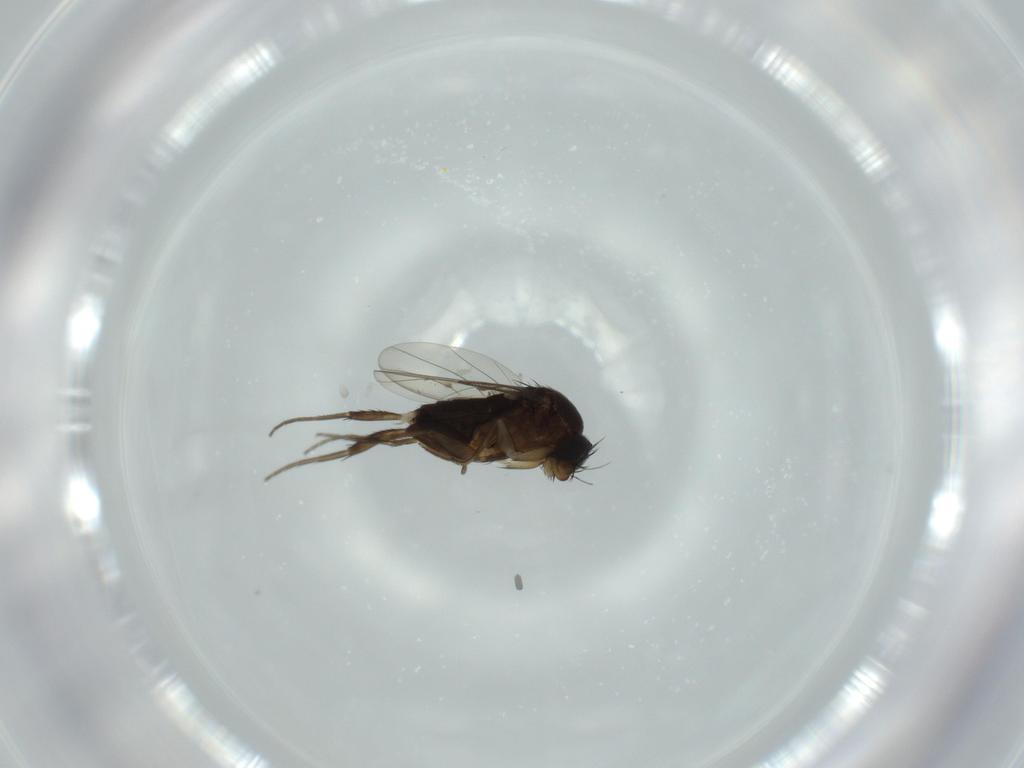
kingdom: Animalia
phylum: Arthropoda
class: Insecta
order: Diptera
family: Phoridae
